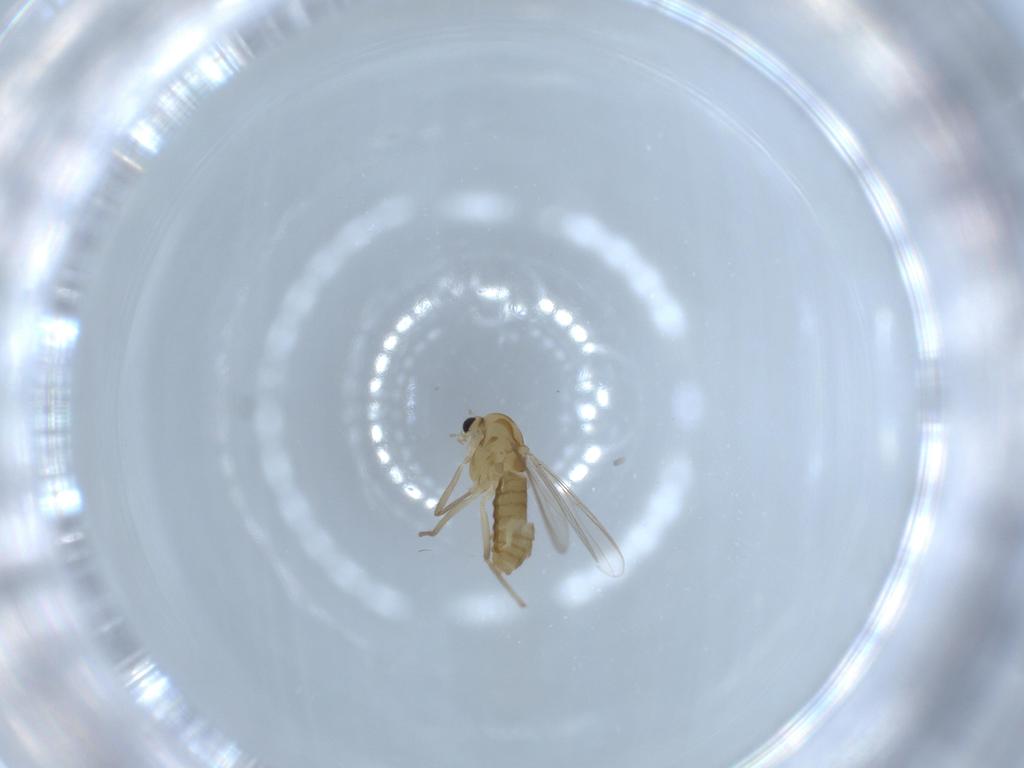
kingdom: Animalia
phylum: Arthropoda
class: Insecta
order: Diptera
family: Chironomidae
